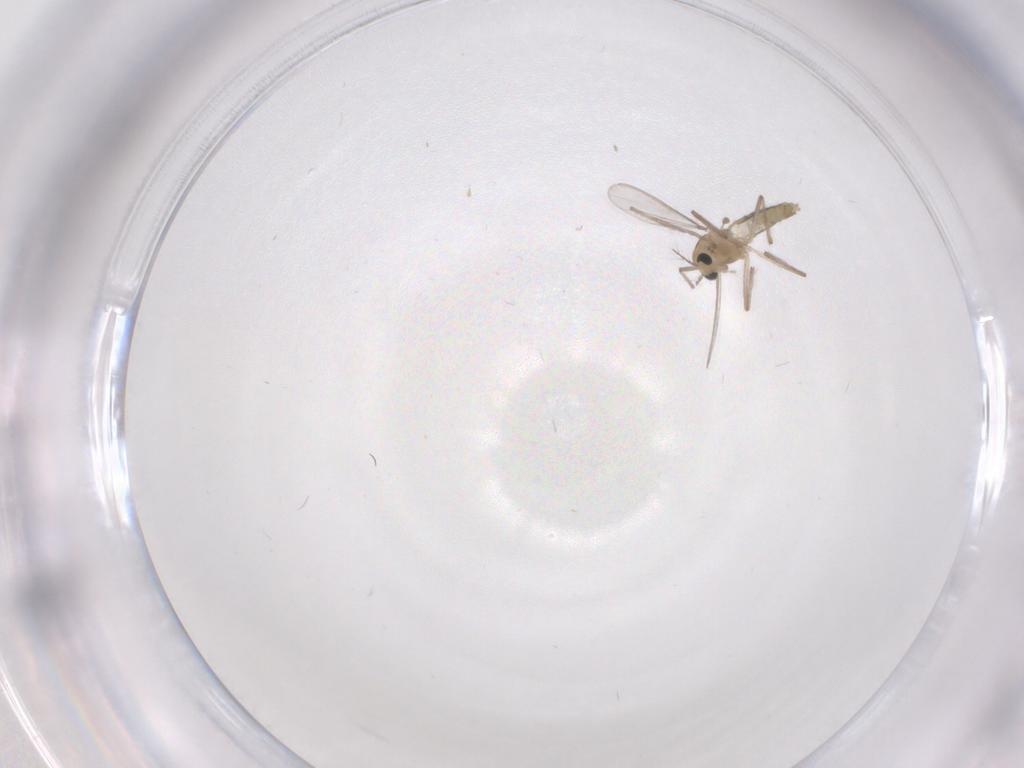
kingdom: Animalia
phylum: Arthropoda
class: Insecta
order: Diptera
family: Chironomidae
